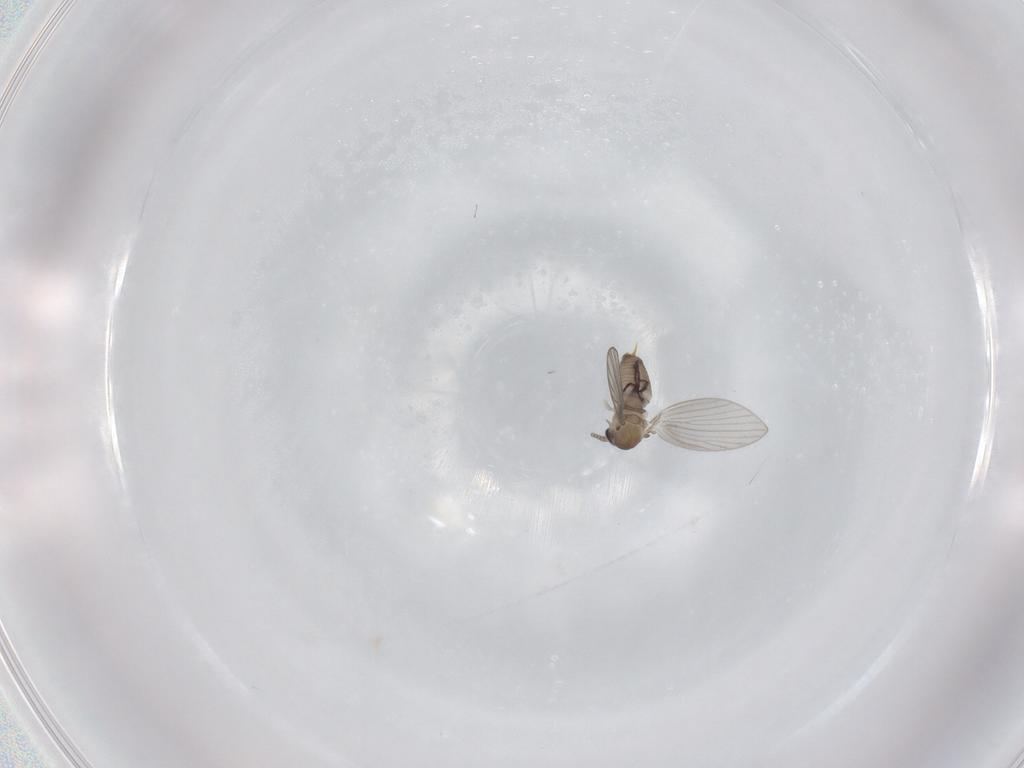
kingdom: Animalia
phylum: Arthropoda
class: Insecta
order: Diptera
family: Psychodidae
